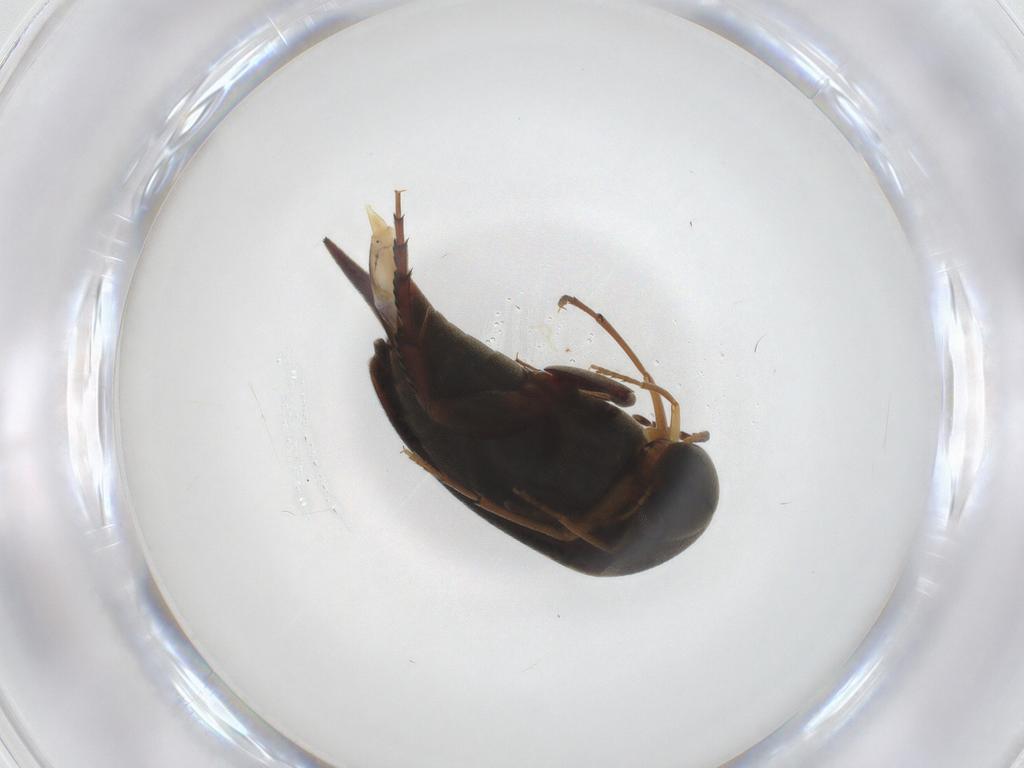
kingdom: Animalia
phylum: Arthropoda
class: Insecta
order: Coleoptera
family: Mordellidae
